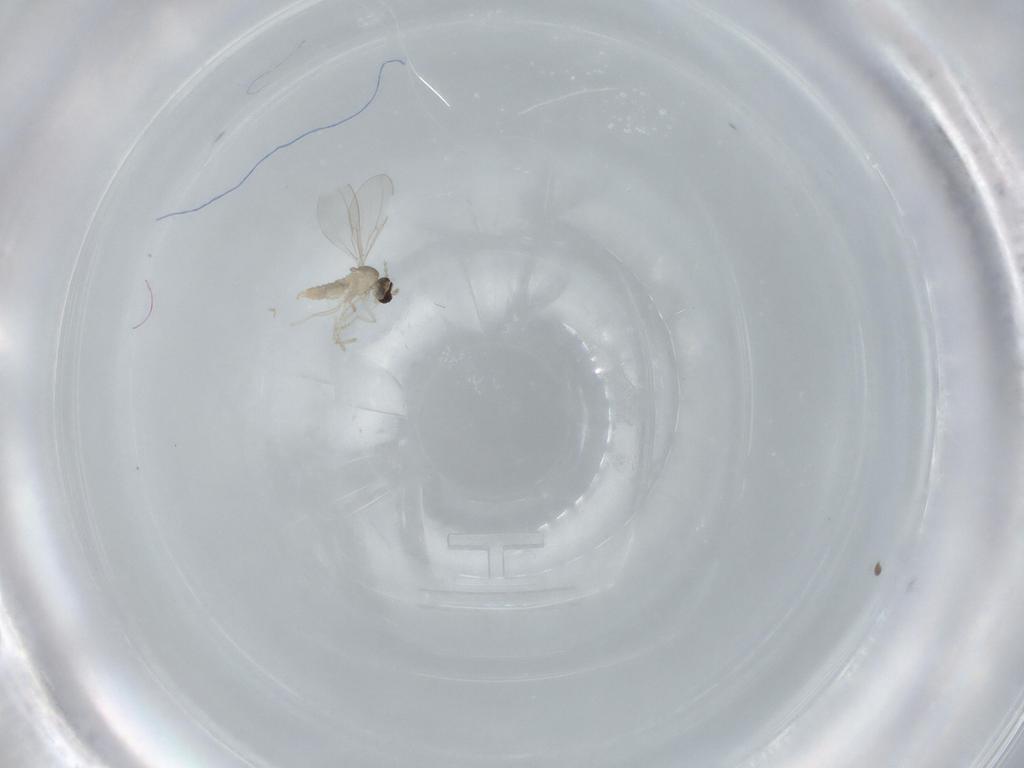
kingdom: Animalia
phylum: Arthropoda
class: Insecta
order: Diptera
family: Cecidomyiidae
